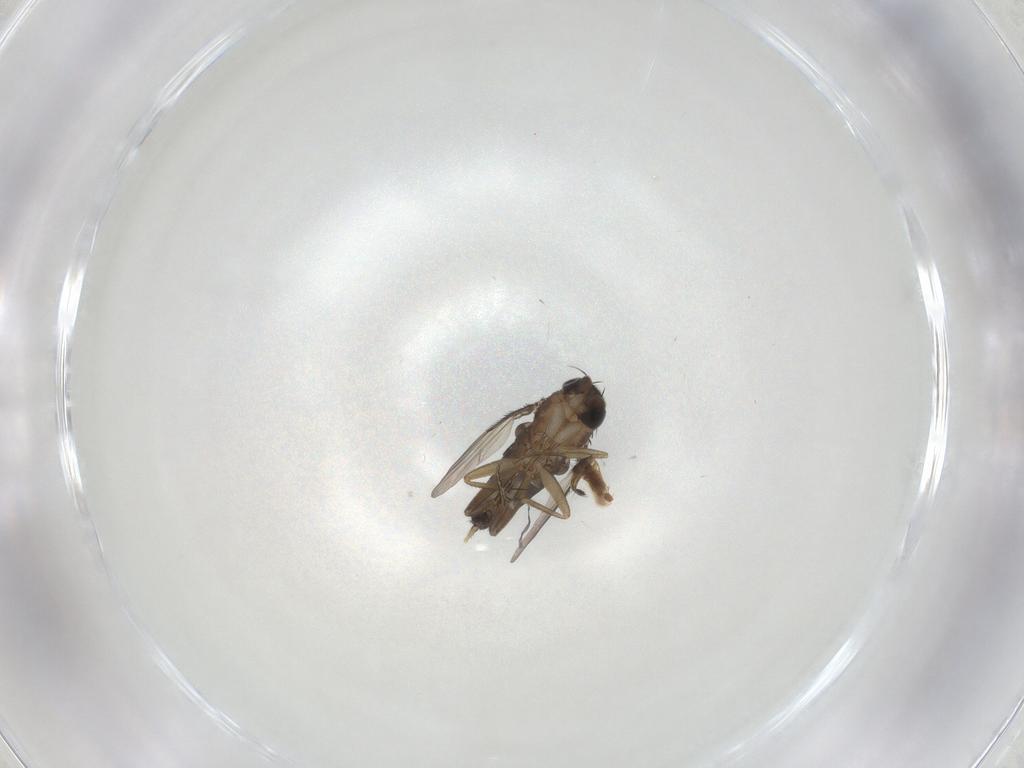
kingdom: Animalia
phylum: Arthropoda
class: Insecta
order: Diptera
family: Phoridae
